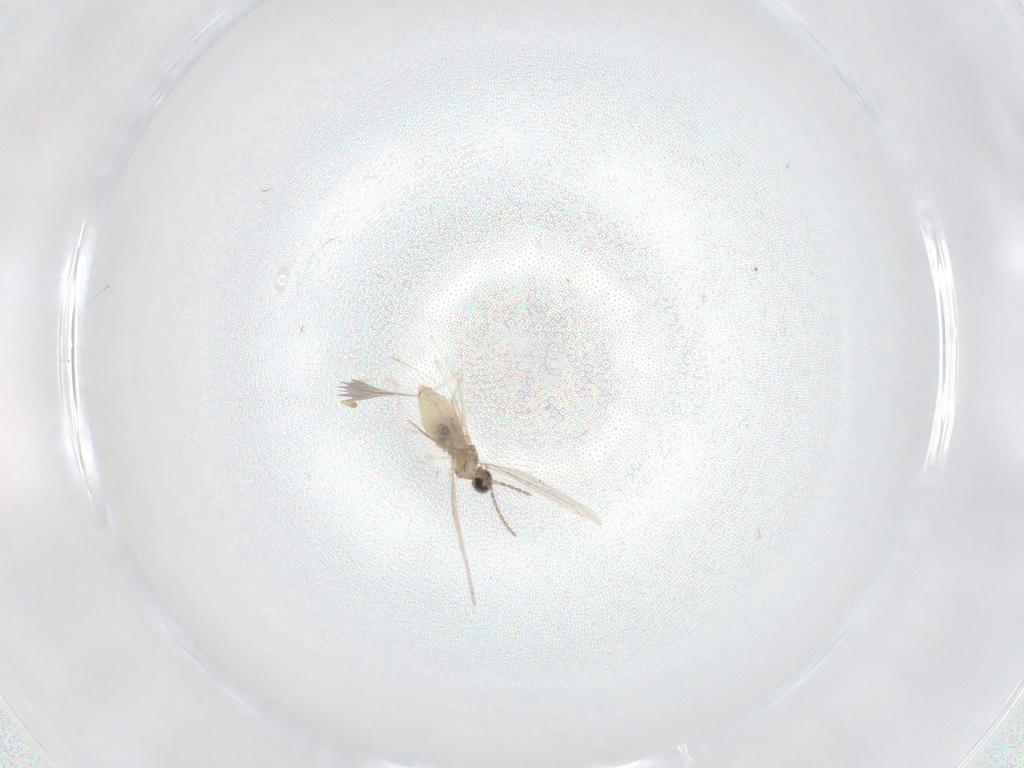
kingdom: Animalia
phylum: Arthropoda
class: Insecta
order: Diptera
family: Cecidomyiidae
